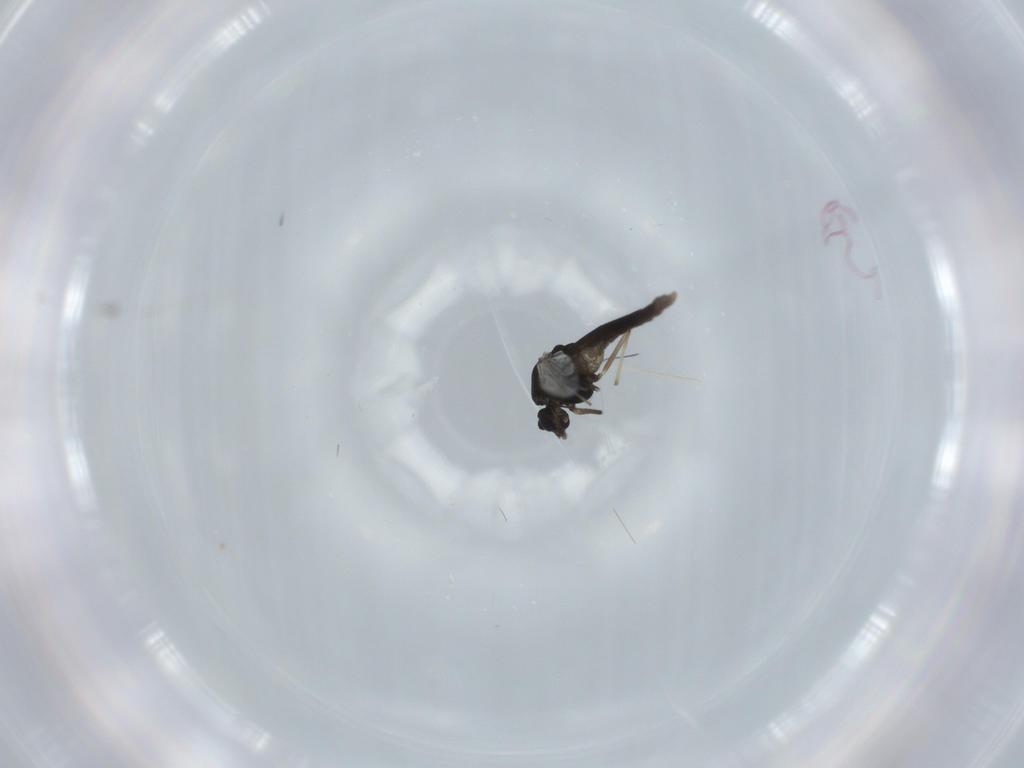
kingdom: Animalia
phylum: Arthropoda
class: Insecta
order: Diptera
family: Chironomidae
